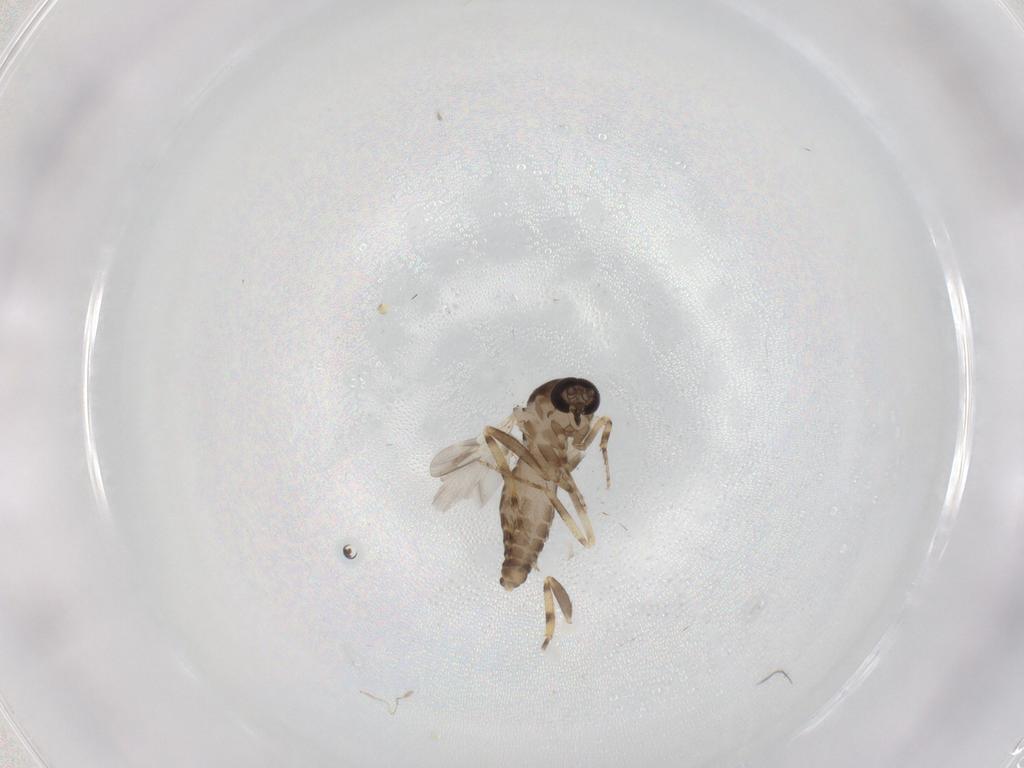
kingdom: Animalia
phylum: Arthropoda
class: Insecta
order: Diptera
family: Ceratopogonidae
